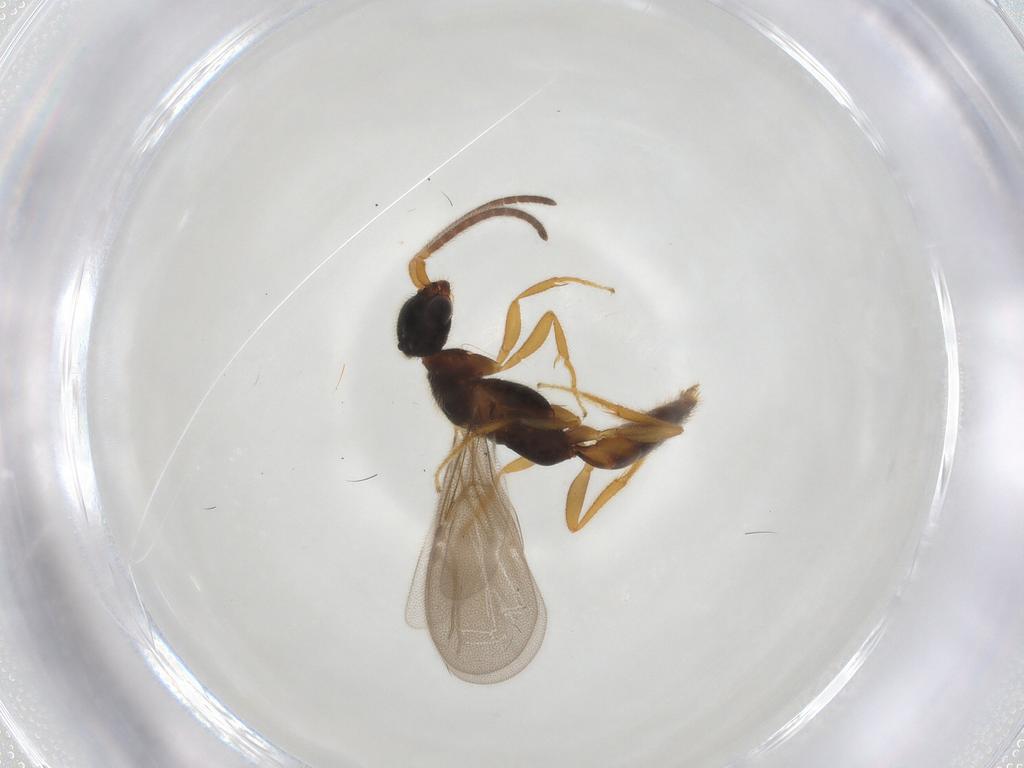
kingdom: Animalia
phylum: Arthropoda
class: Insecta
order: Hymenoptera
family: Bethylidae
